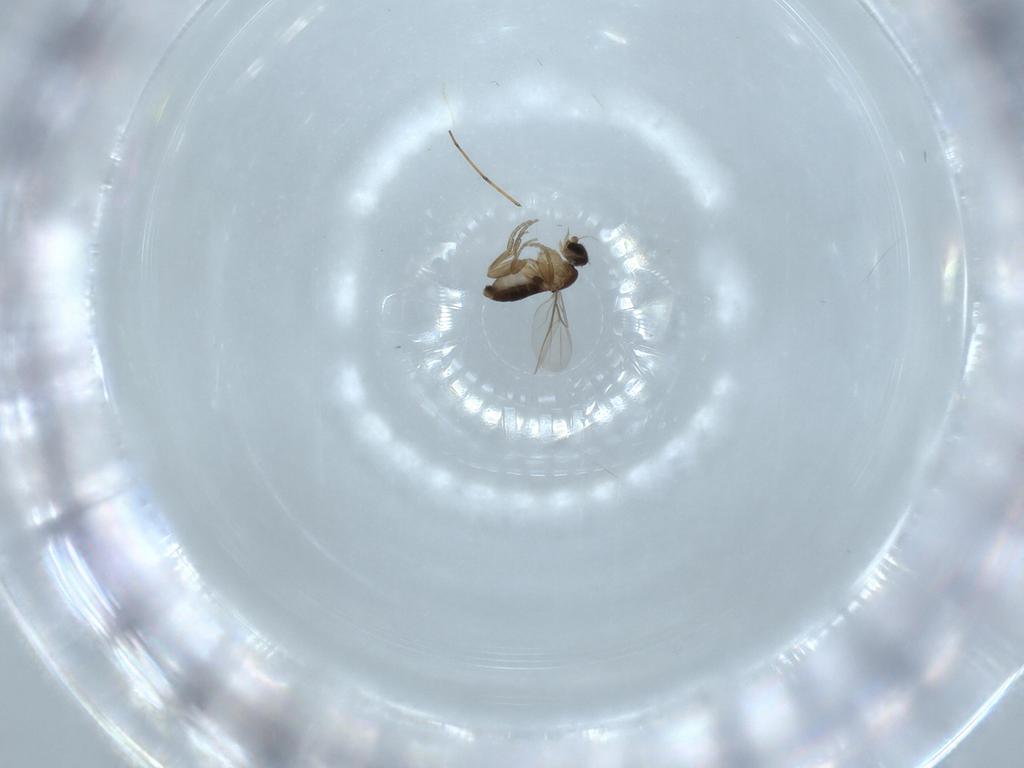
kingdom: Animalia
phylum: Arthropoda
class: Insecta
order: Diptera
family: Phoridae
